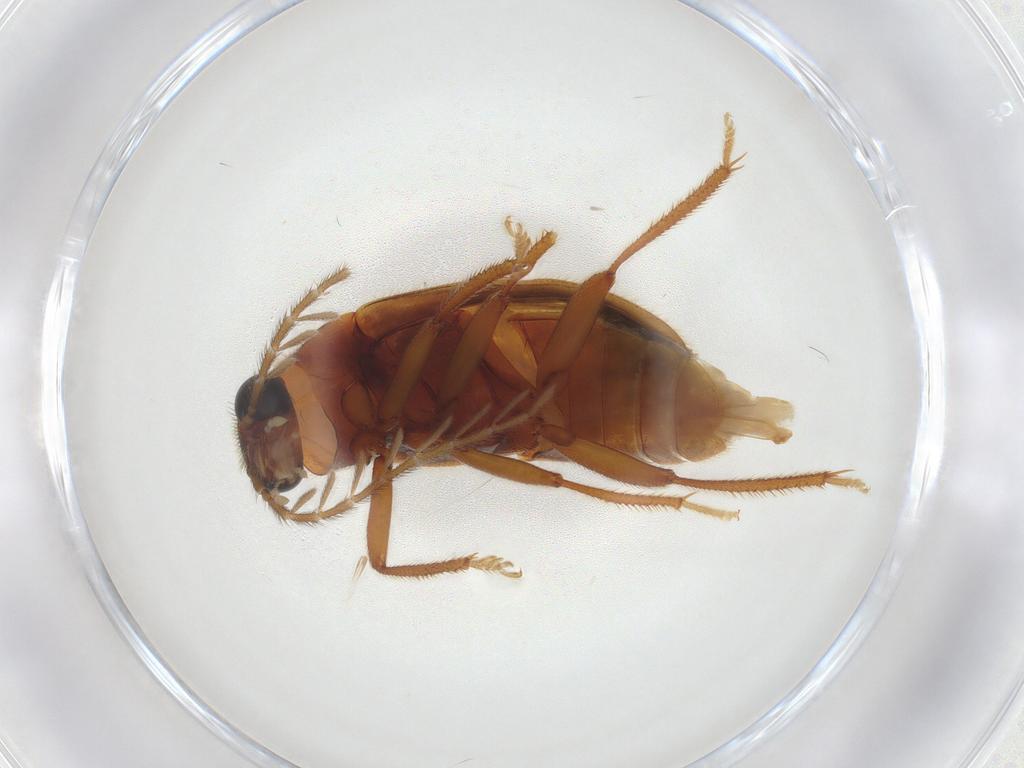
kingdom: Animalia
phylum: Arthropoda
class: Insecta
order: Coleoptera
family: Ptilodactylidae
